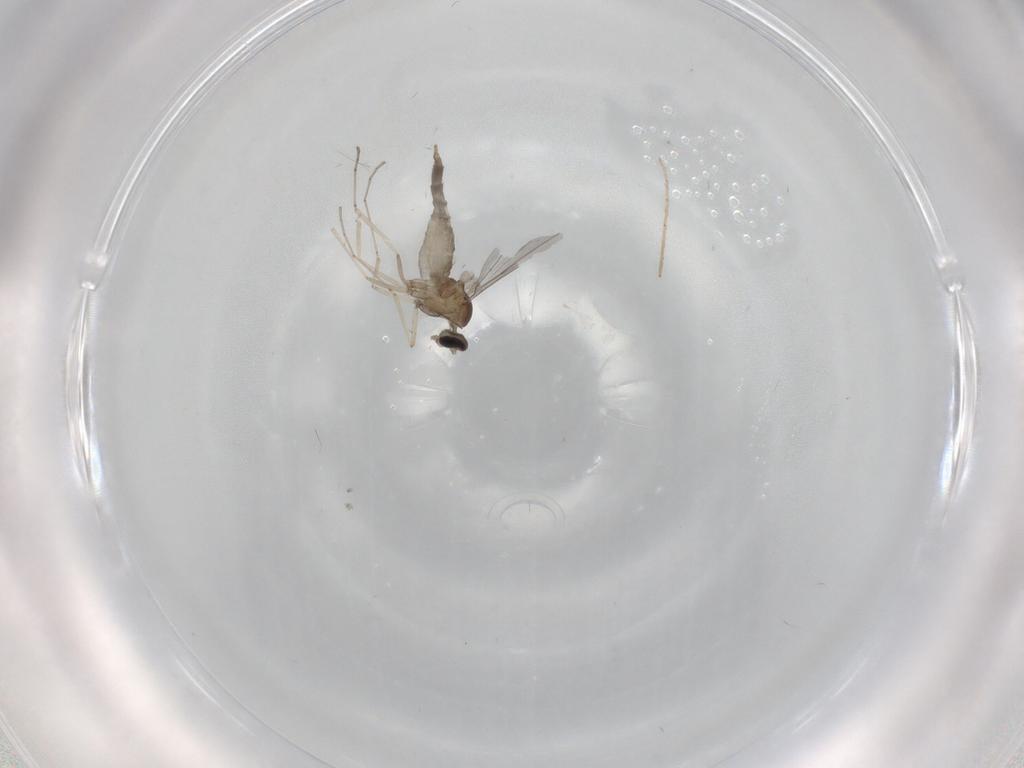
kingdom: Animalia
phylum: Arthropoda
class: Insecta
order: Diptera
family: Cecidomyiidae
